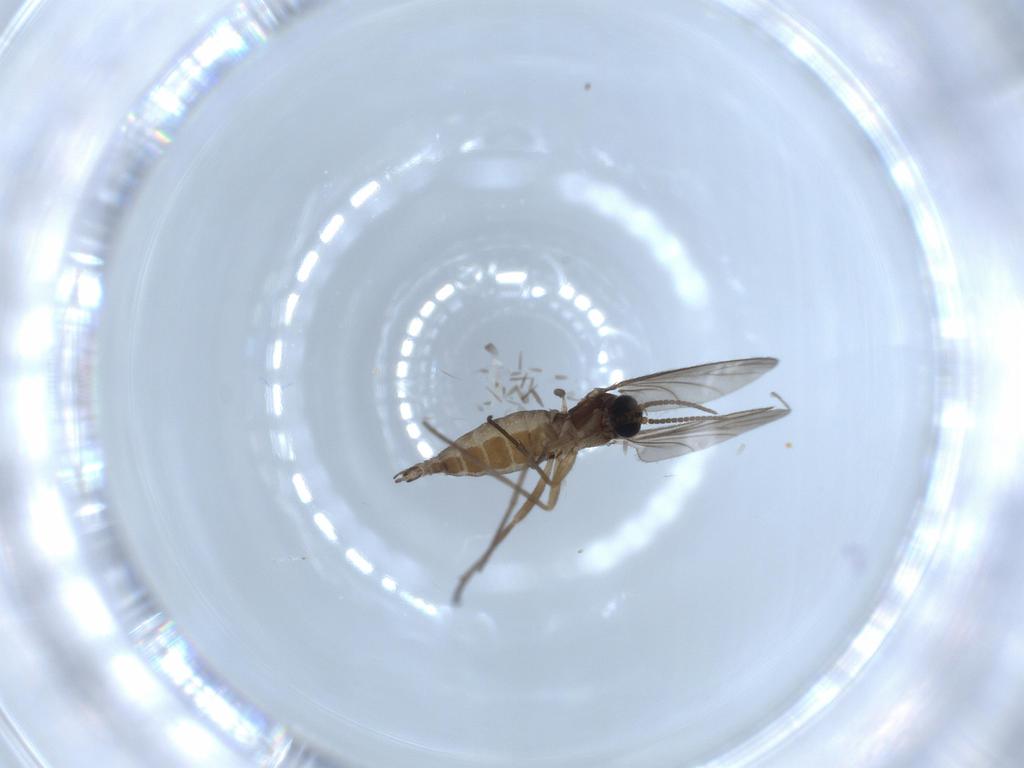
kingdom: Animalia
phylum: Arthropoda
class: Insecta
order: Diptera
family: Sciaridae
